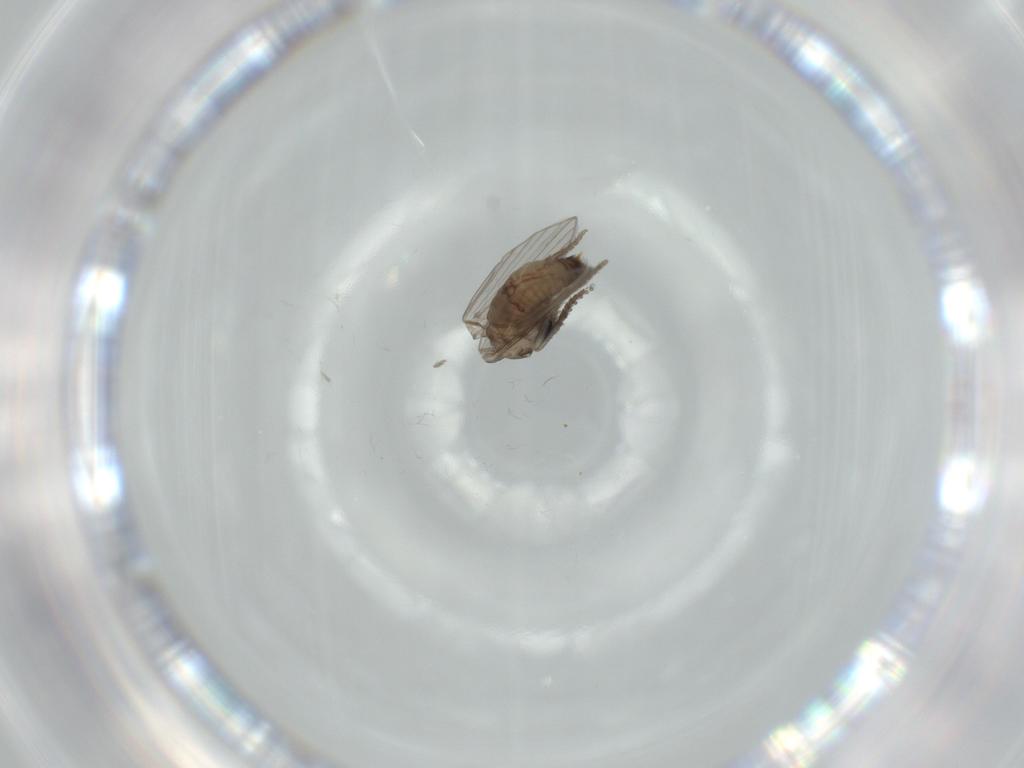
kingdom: Animalia
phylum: Arthropoda
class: Insecta
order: Diptera
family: Psychodidae
